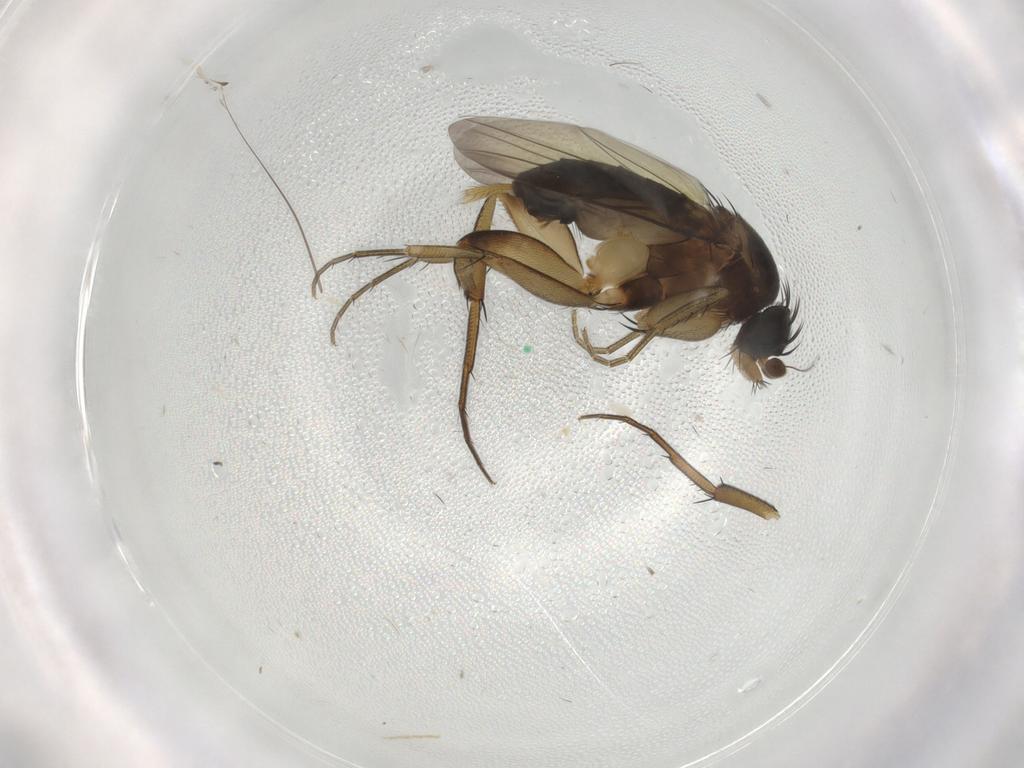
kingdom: Animalia
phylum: Arthropoda
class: Insecta
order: Diptera
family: Phoridae
